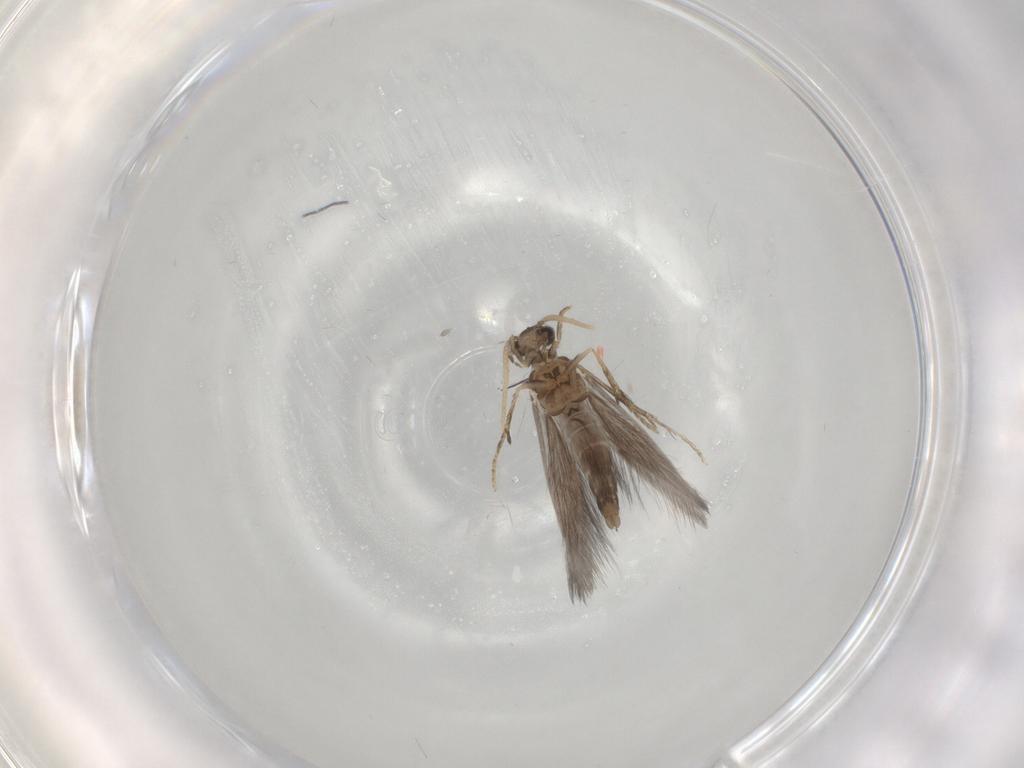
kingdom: Animalia
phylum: Arthropoda
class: Insecta
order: Trichoptera
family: Hydroptilidae
